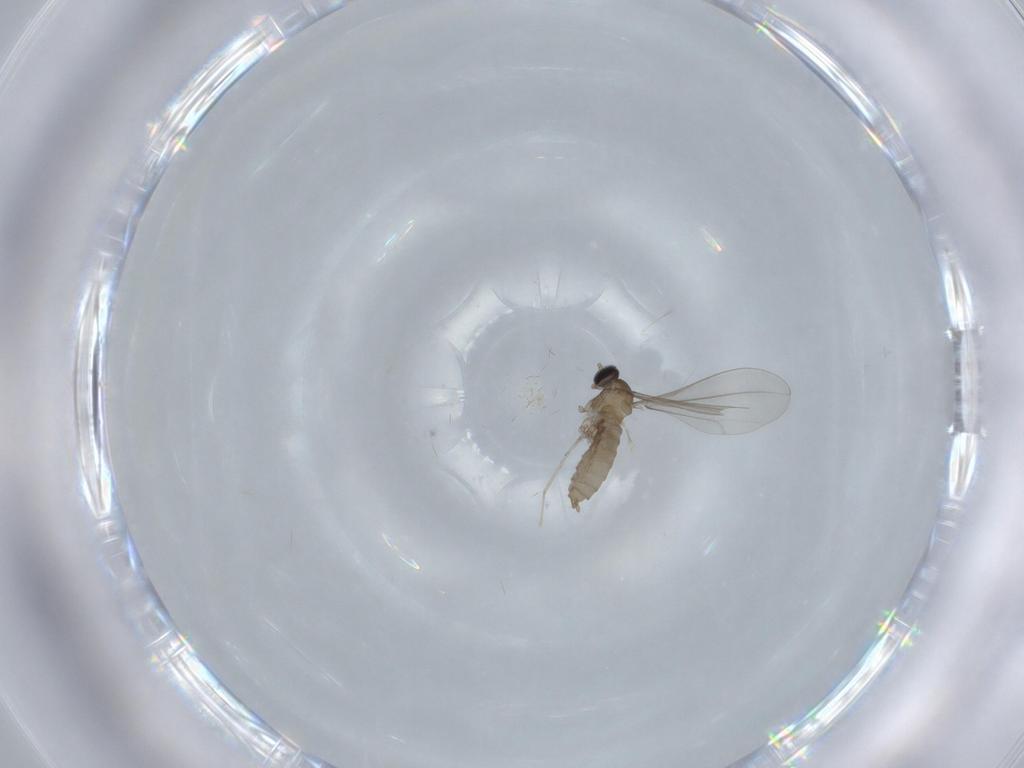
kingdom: Animalia
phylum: Arthropoda
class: Insecta
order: Diptera
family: Cecidomyiidae
